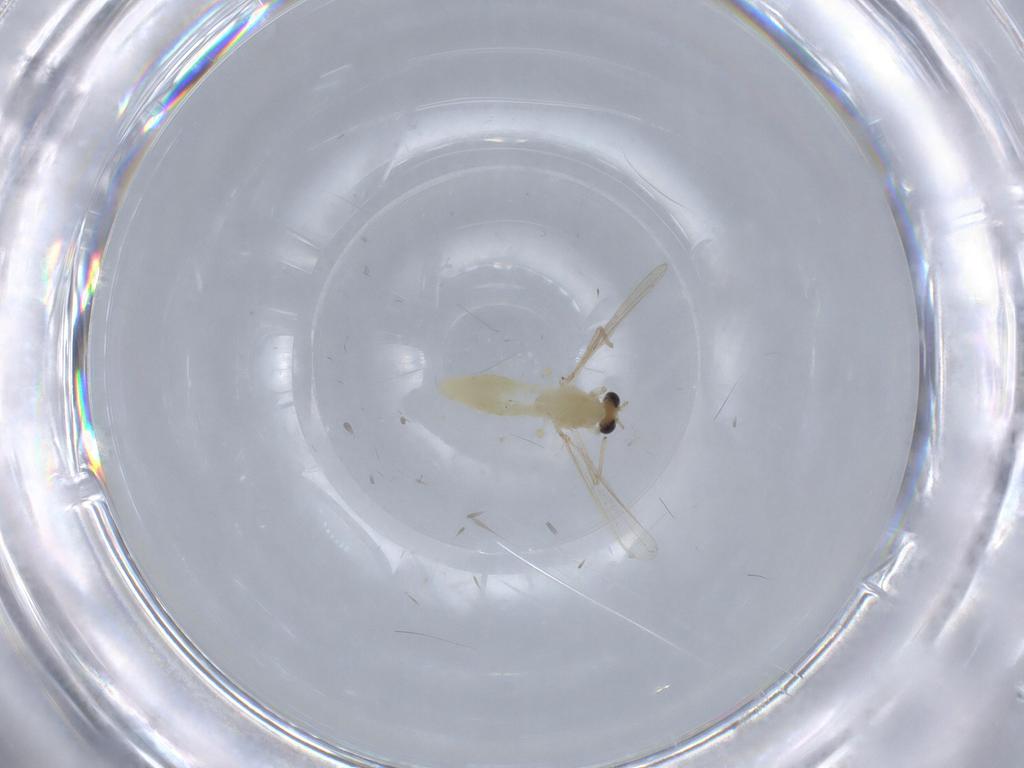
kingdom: Animalia
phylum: Arthropoda
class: Insecta
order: Diptera
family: Chironomidae
